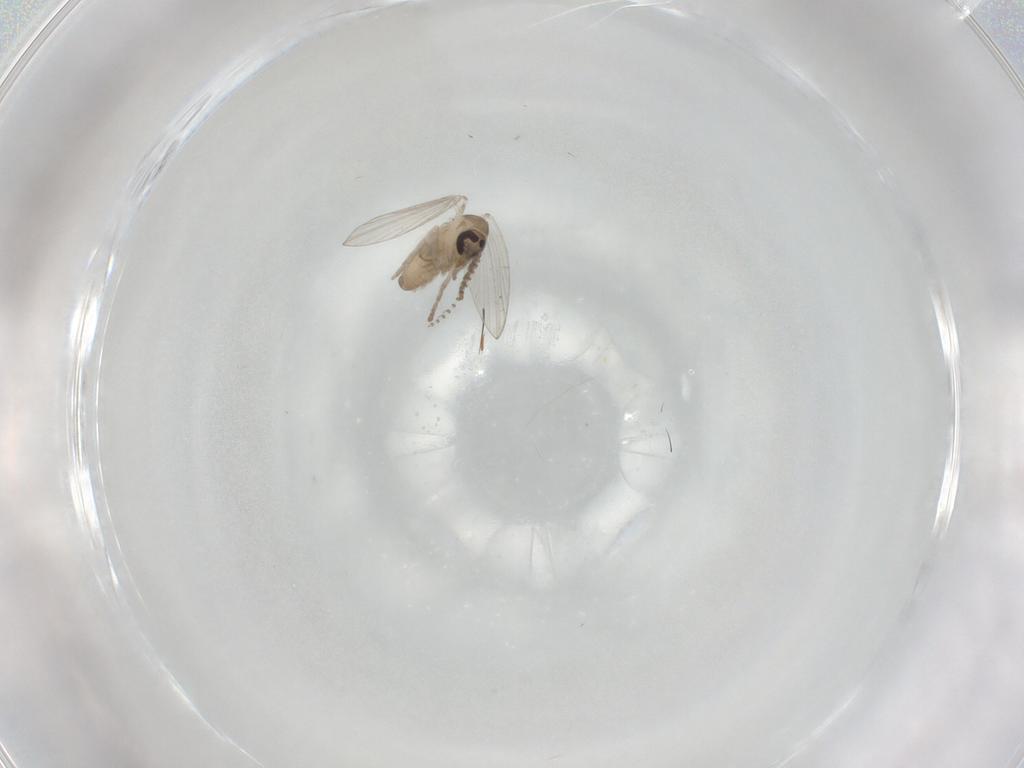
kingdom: Animalia
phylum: Arthropoda
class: Insecta
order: Diptera
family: Psychodidae
